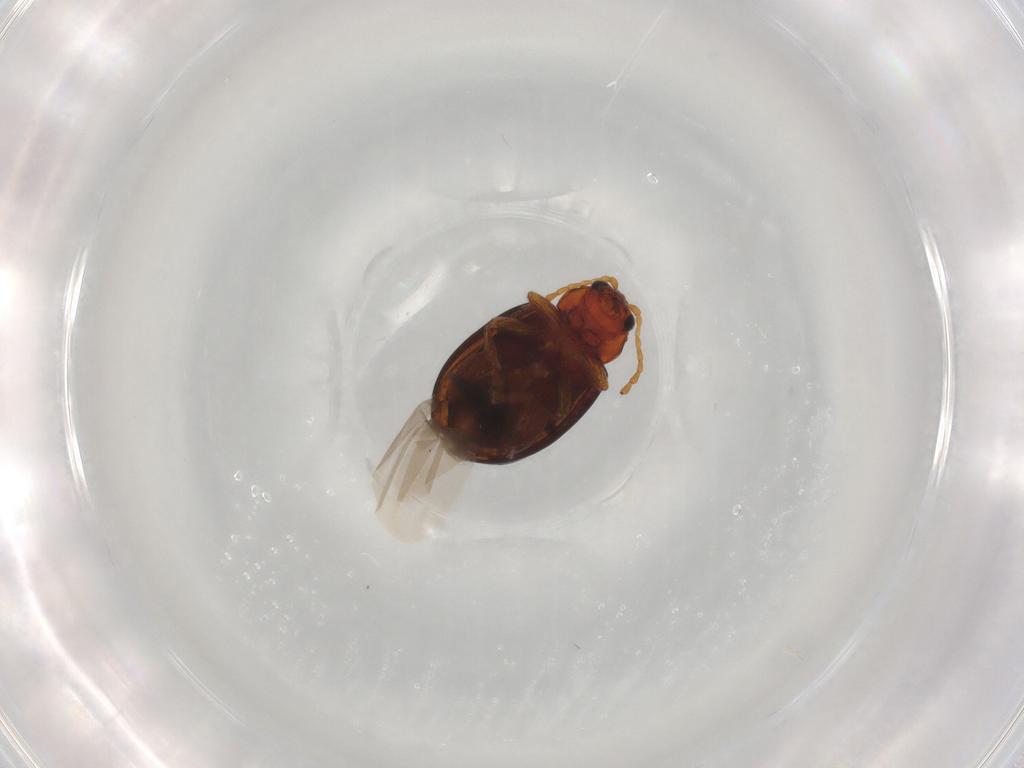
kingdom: Animalia
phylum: Arthropoda
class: Insecta
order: Coleoptera
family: Chrysomelidae
